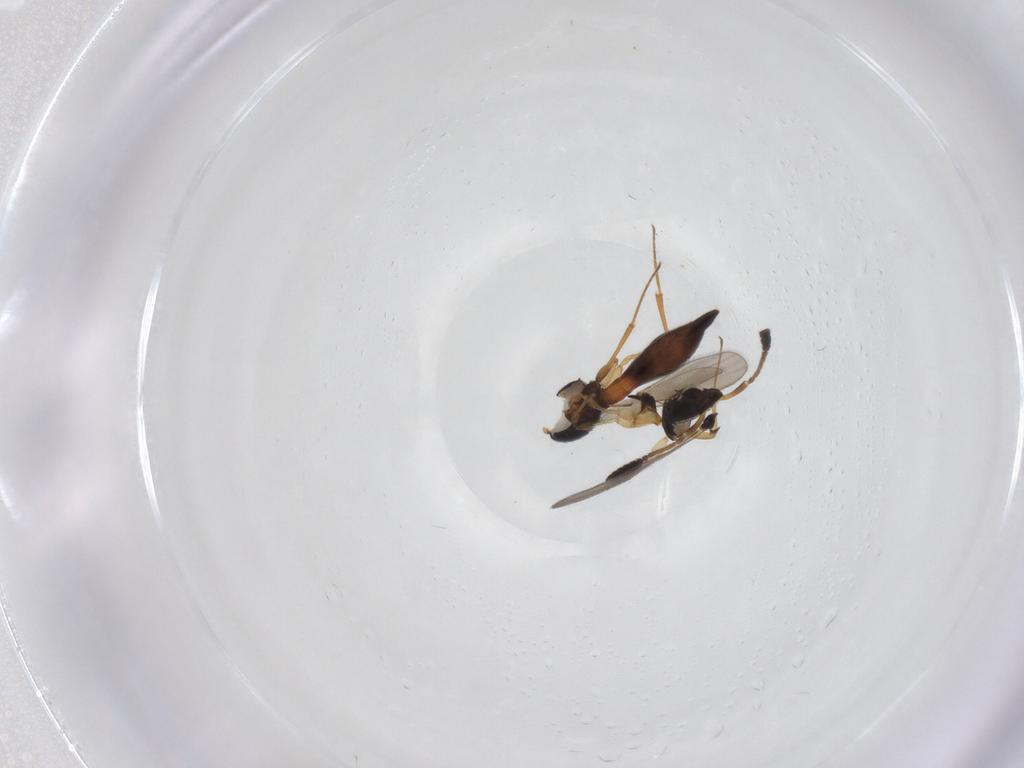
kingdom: Animalia
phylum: Arthropoda
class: Insecta
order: Hymenoptera
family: Scelionidae
